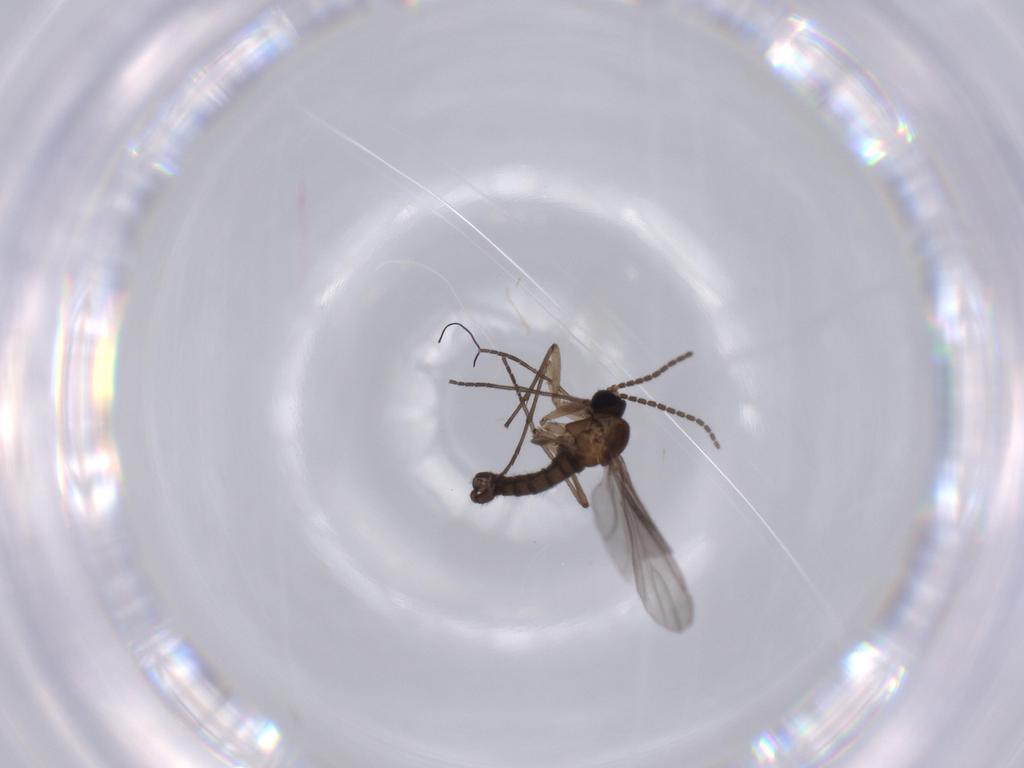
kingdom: Animalia
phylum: Arthropoda
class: Insecta
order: Diptera
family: Phoridae
